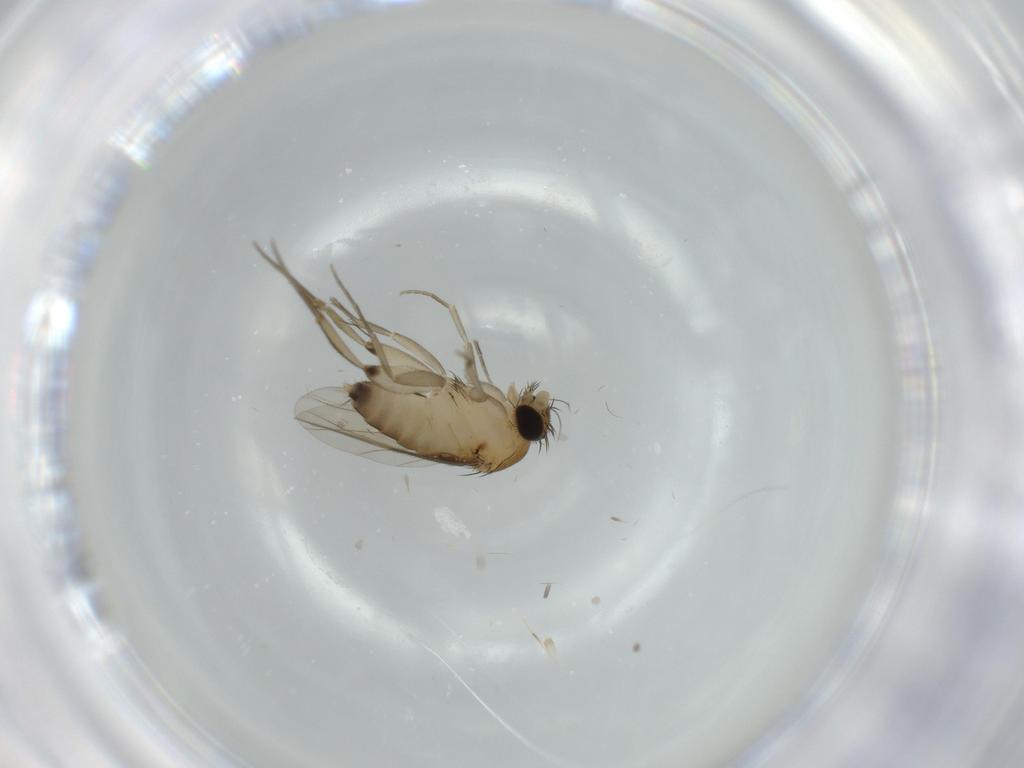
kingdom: Animalia
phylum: Arthropoda
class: Insecta
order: Diptera
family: Phoridae
